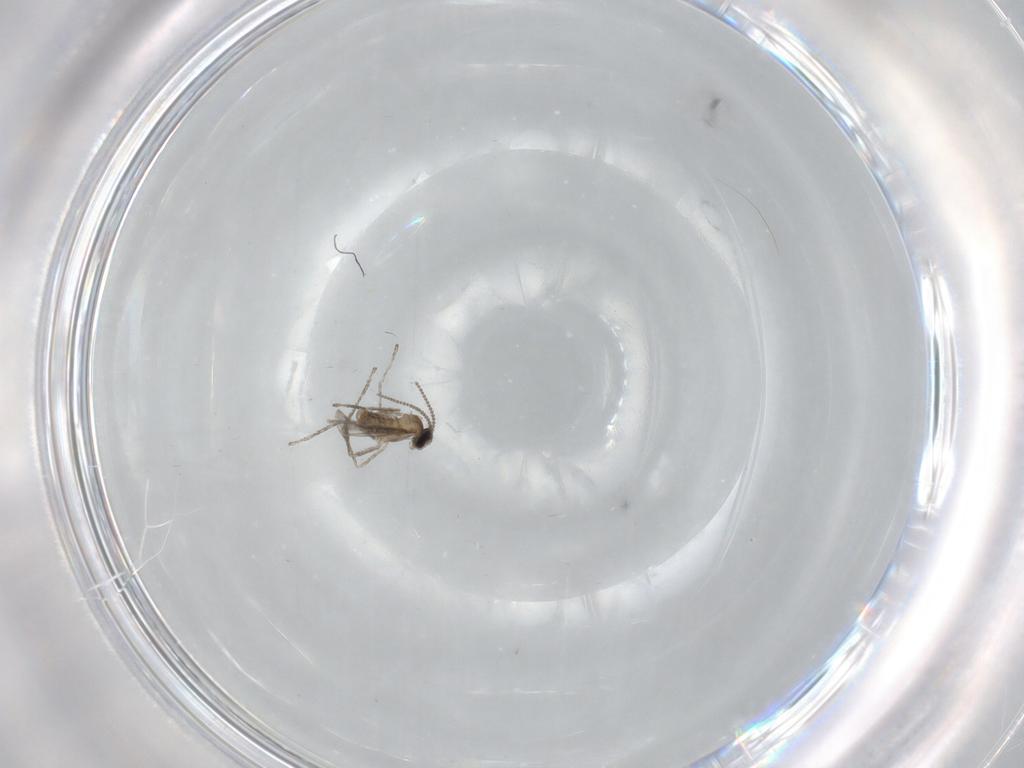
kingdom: Animalia
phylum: Arthropoda
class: Insecta
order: Diptera
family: Cecidomyiidae
